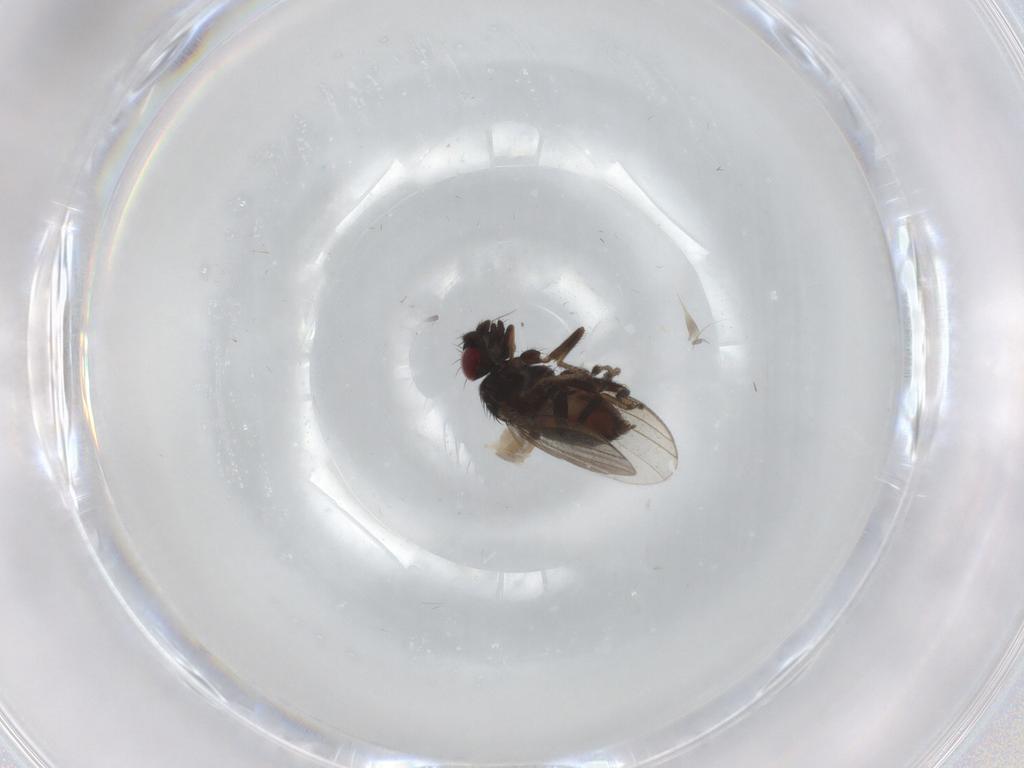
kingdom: Animalia
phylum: Arthropoda
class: Insecta
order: Diptera
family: Milichiidae
